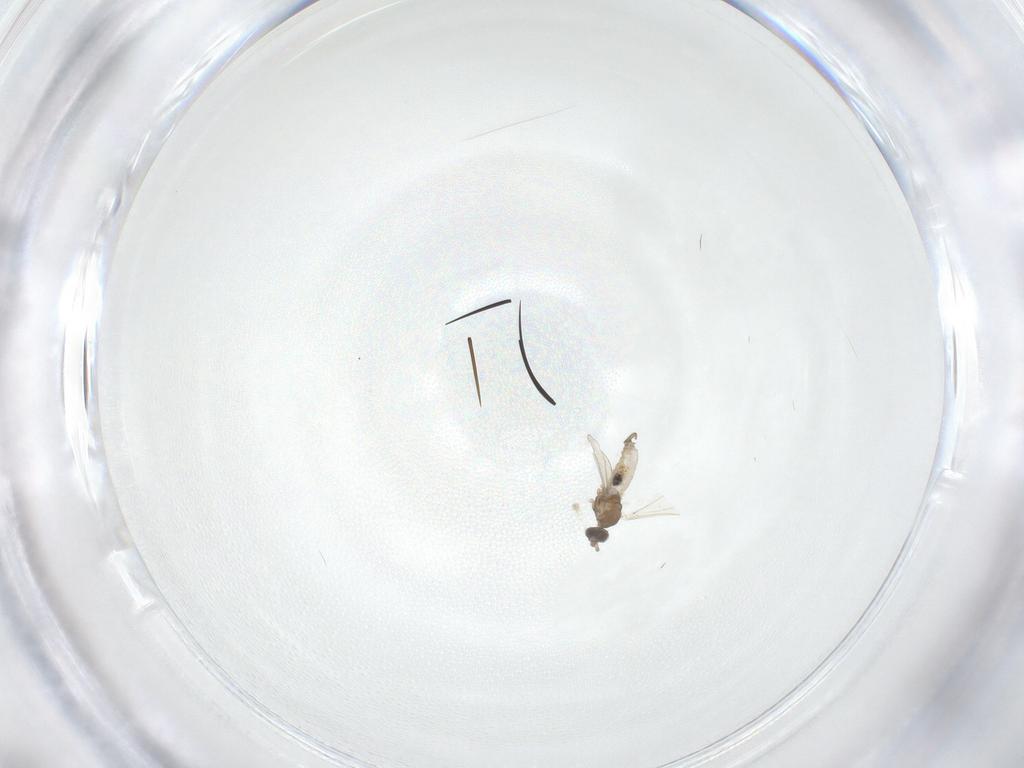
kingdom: Animalia
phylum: Arthropoda
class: Insecta
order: Diptera
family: Cecidomyiidae
